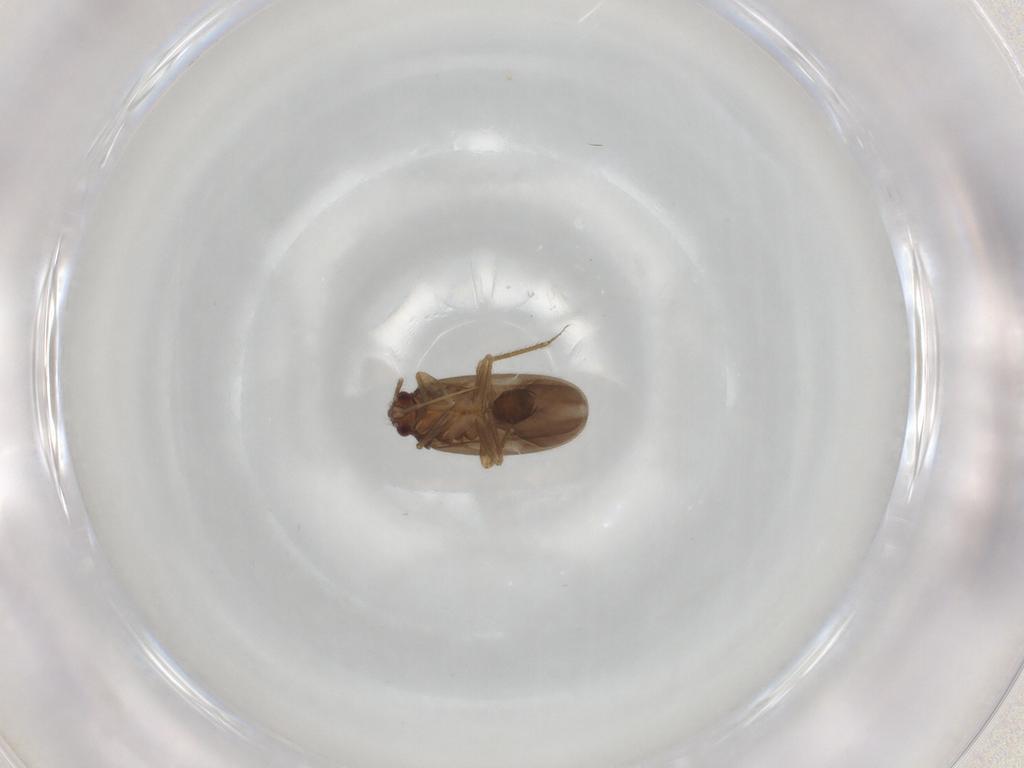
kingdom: Animalia
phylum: Arthropoda
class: Insecta
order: Hemiptera
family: Ceratocombidae
